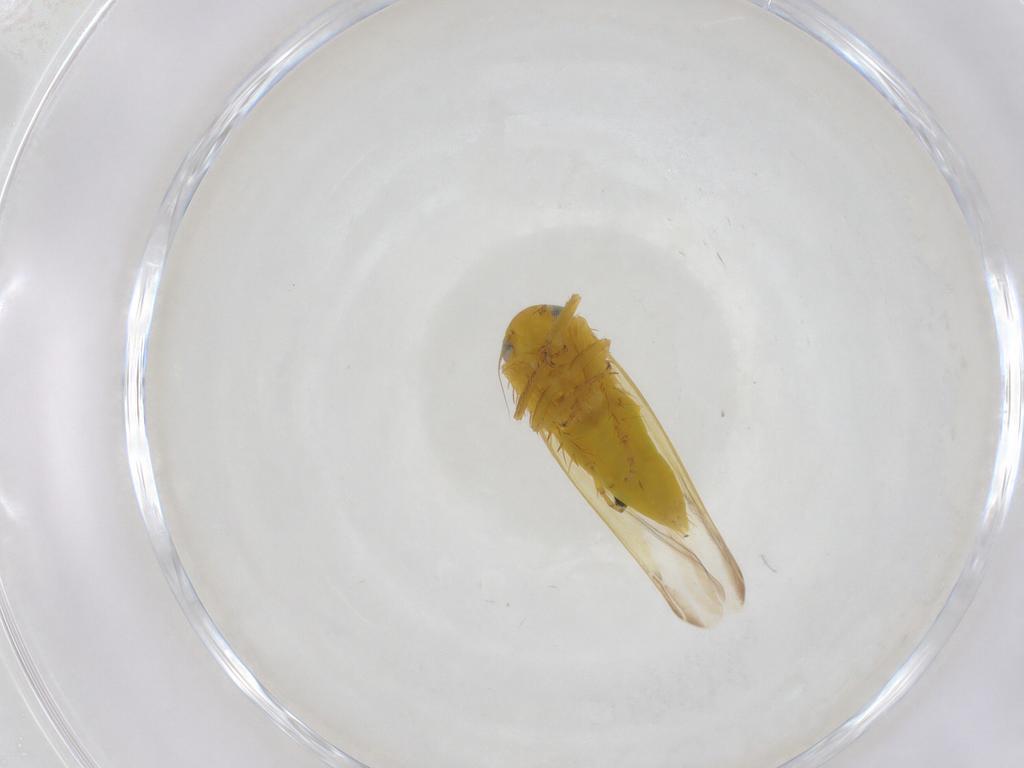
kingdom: Animalia
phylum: Arthropoda
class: Insecta
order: Hemiptera
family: Cicadellidae
